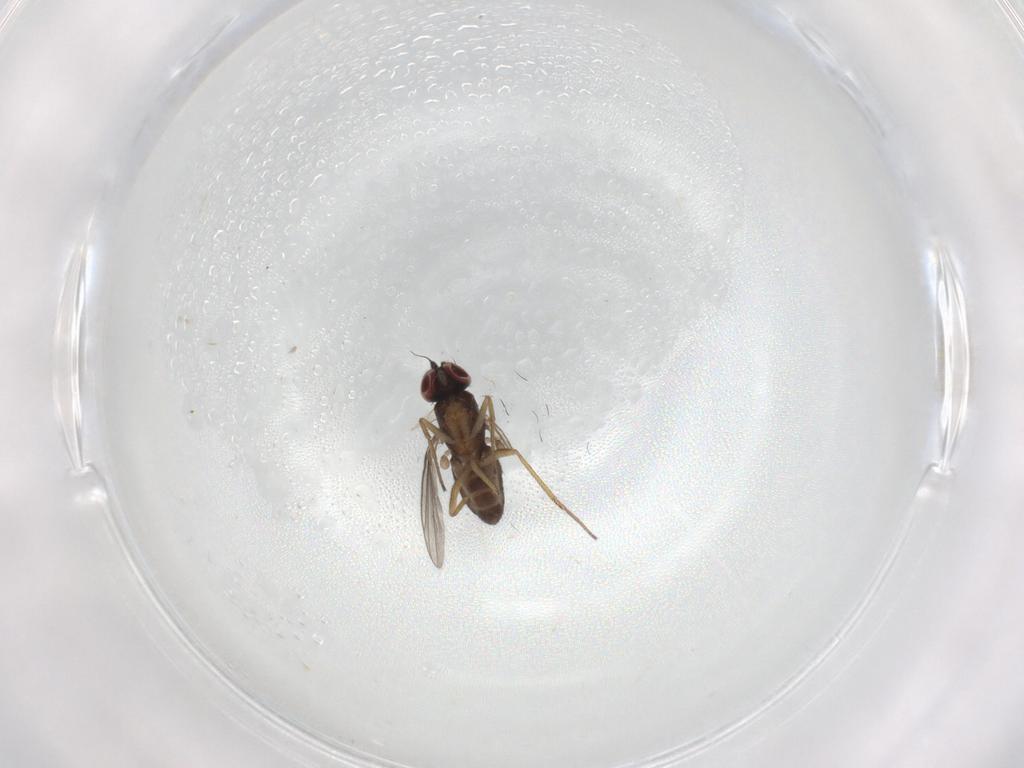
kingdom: Animalia
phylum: Arthropoda
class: Insecta
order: Diptera
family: Dolichopodidae
